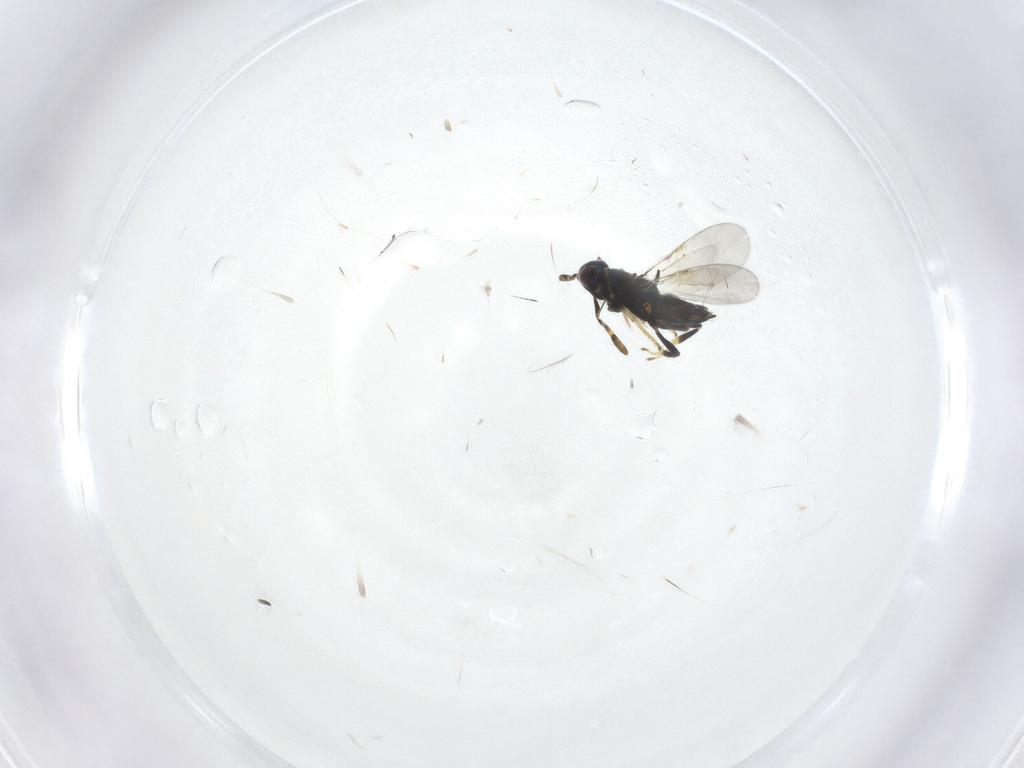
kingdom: Animalia
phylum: Arthropoda
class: Insecta
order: Hymenoptera
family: Encyrtidae
